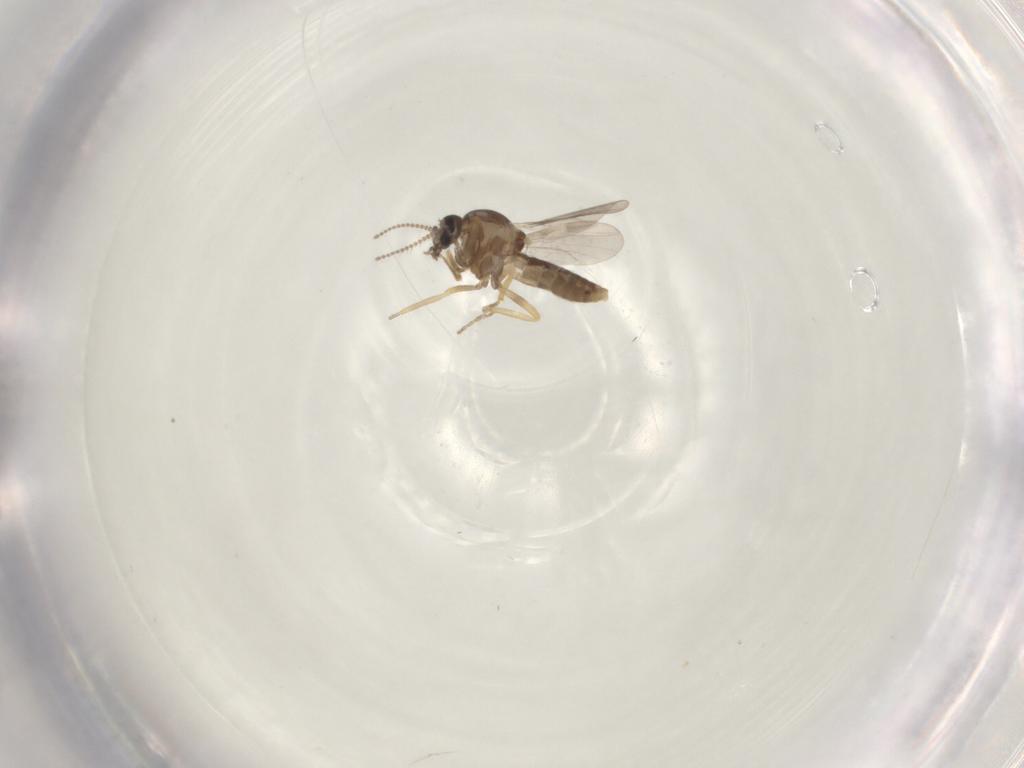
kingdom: Animalia
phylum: Arthropoda
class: Insecta
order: Diptera
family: Ceratopogonidae
